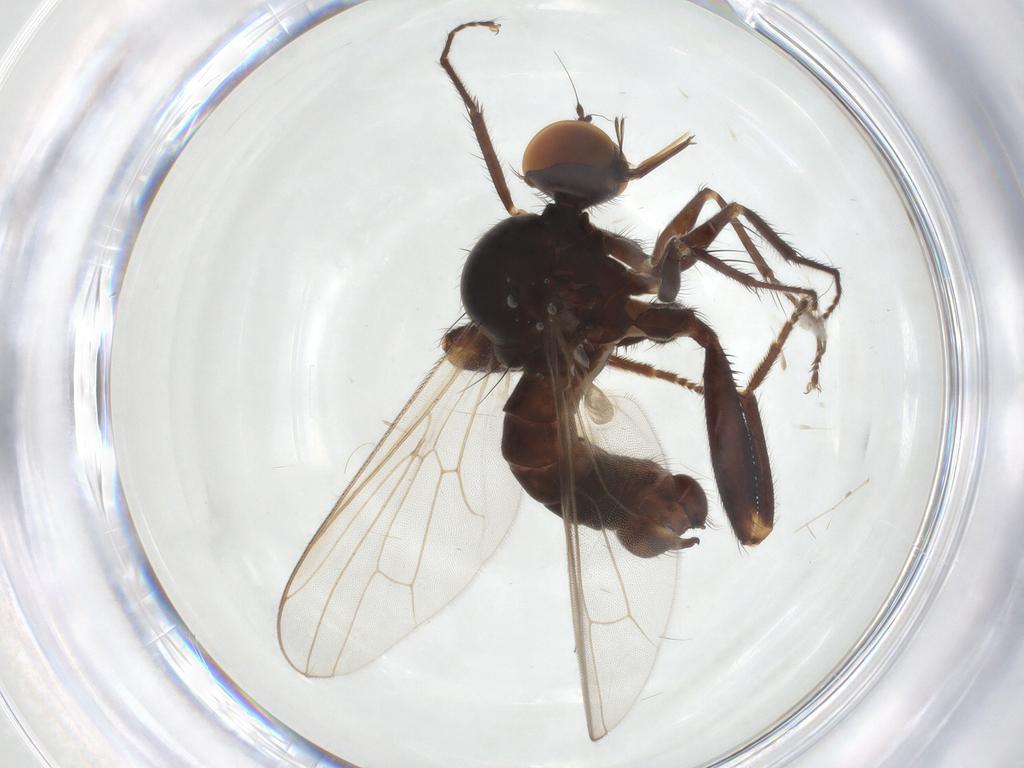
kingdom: Animalia
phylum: Arthropoda
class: Insecta
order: Diptera
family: Hybotidae
